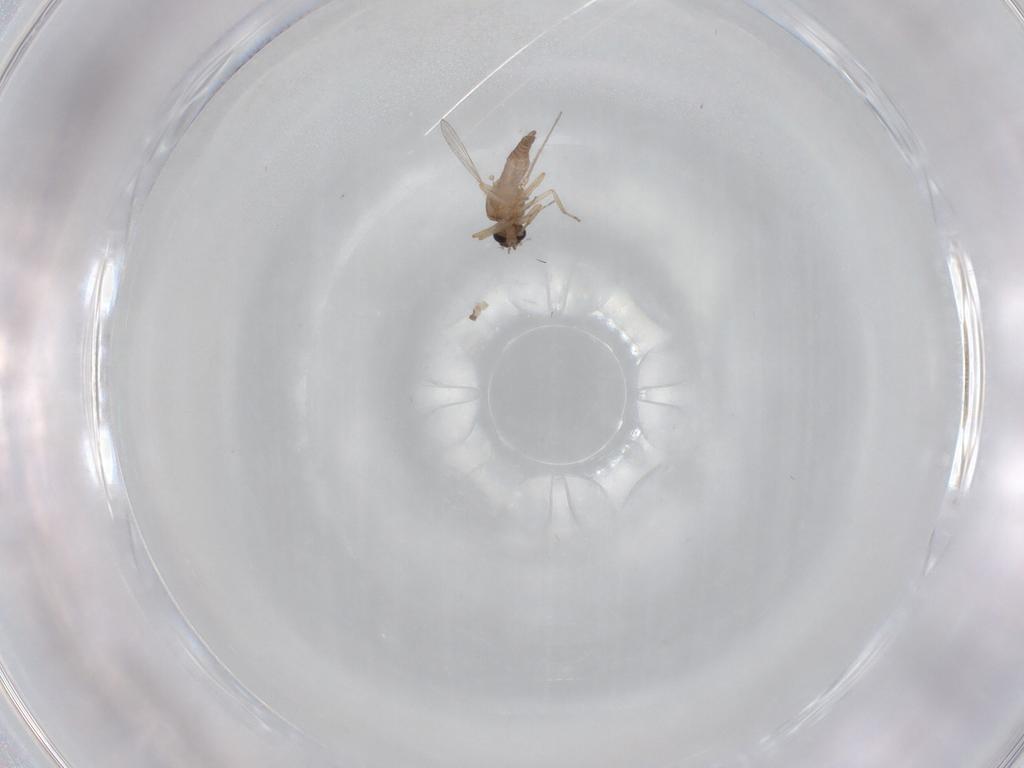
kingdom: Animalia
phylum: Arthropoda
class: Insecta
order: Diptera
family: Ceratopogonidae
